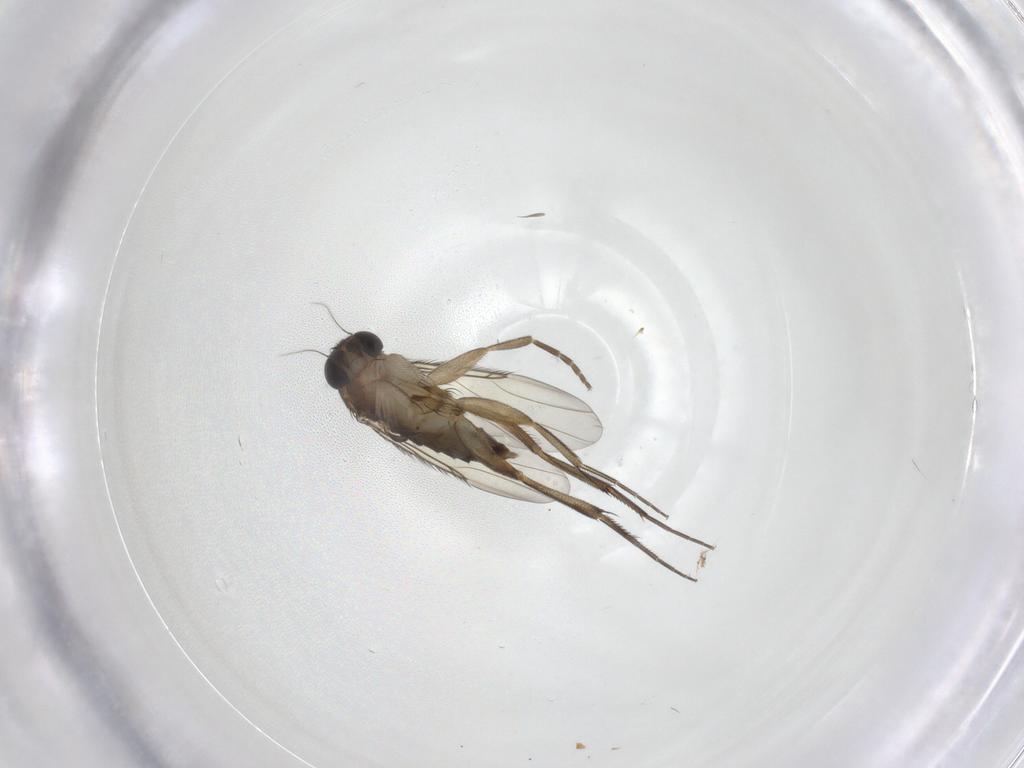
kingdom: Animalia
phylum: Arthropoda
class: Insecta
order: Diptera
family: Phoridae
